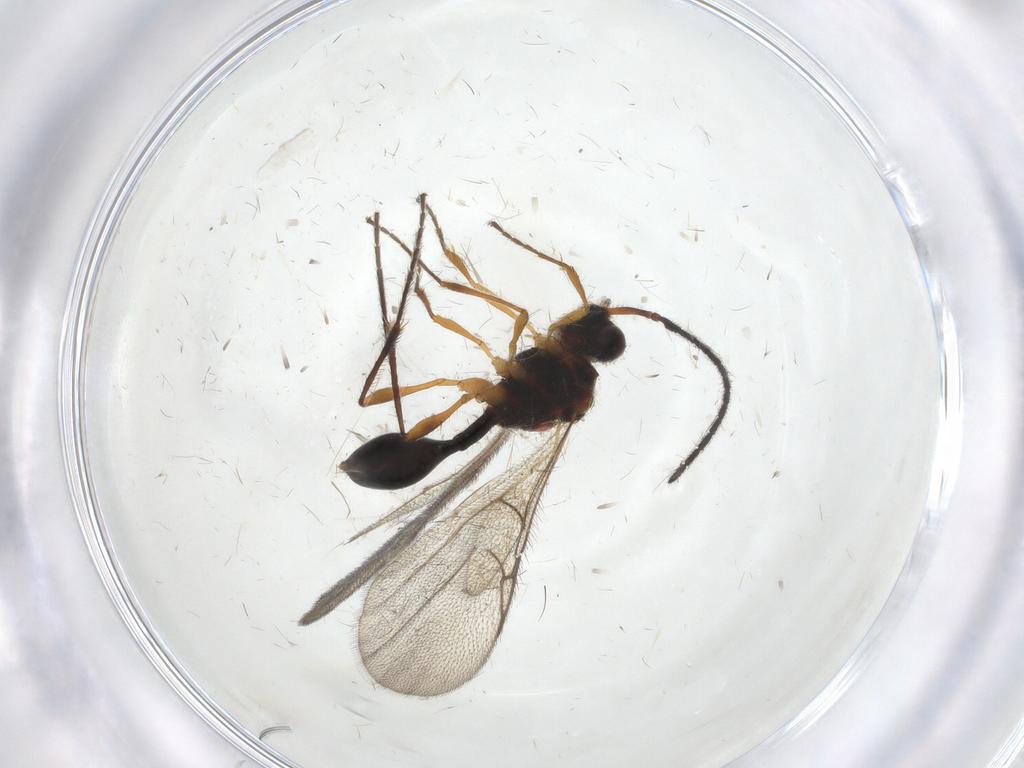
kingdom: Animalia
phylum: Arthropoda
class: Insecta
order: Hymenoptera
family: Diapriidae
